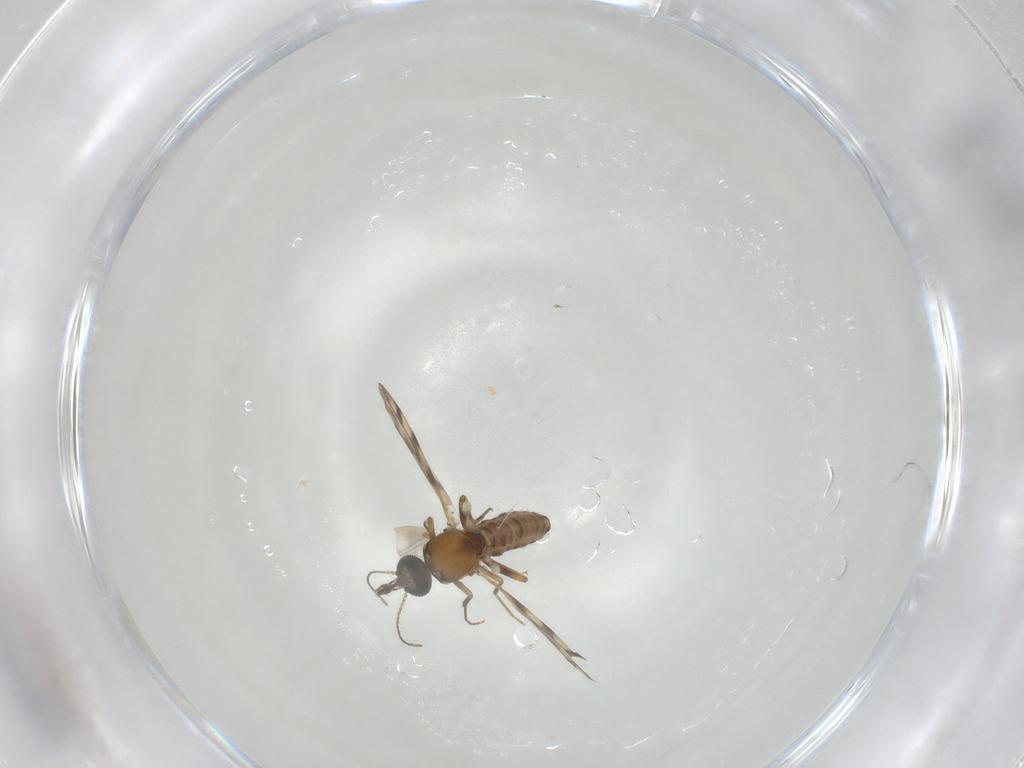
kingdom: Animalia
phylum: Arthropoda
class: Insecta
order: Diptera
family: Ceratopogonidae
